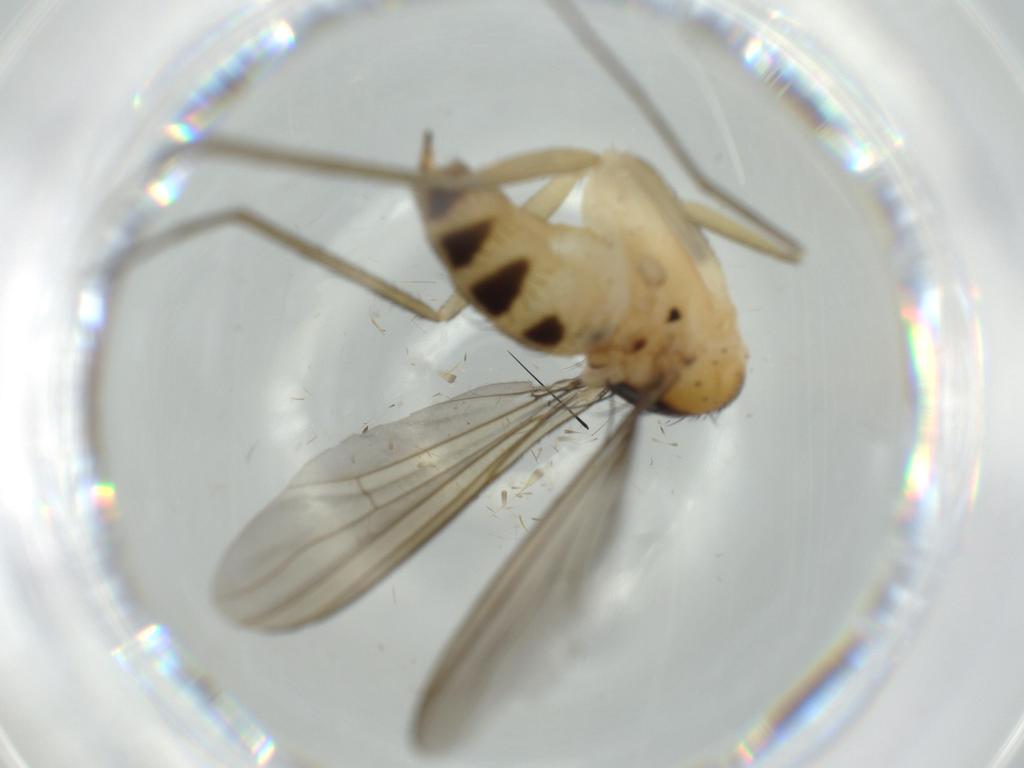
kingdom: Animalia
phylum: Arthropoda
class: Insecta
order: Diptera
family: Dolichopodidae
